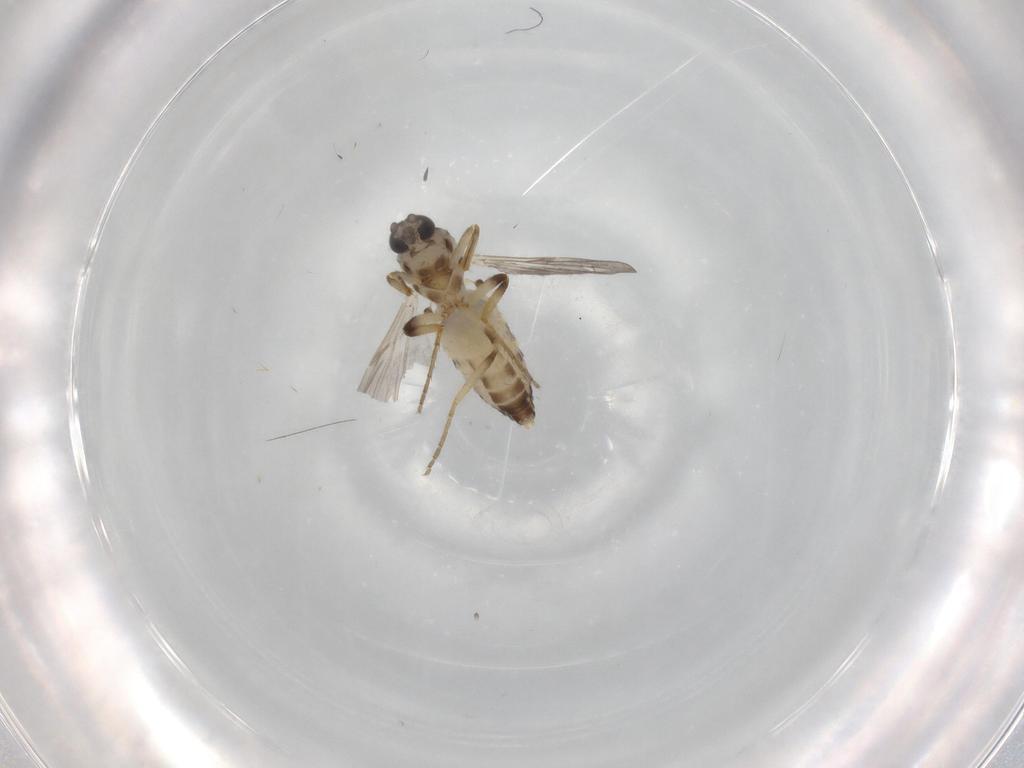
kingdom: Animalia
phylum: Arthropoda
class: Insecta
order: Diptera
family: Ceratopogonidae
